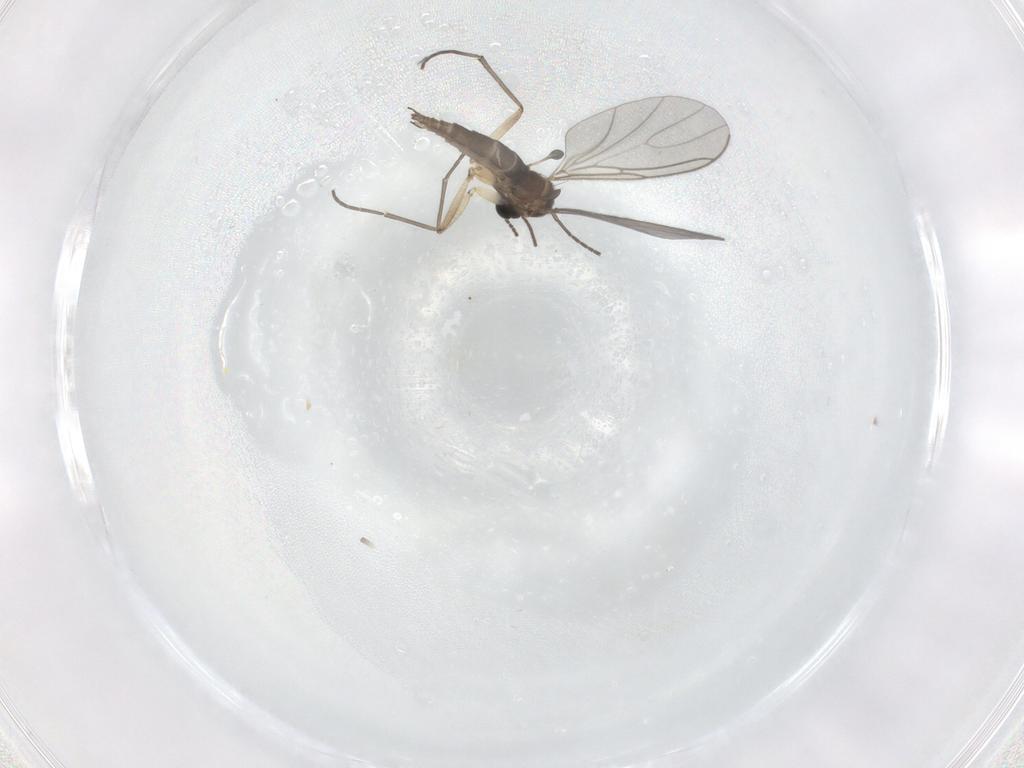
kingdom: Animalia
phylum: Arthropoda
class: Insecta
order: Diptera
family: Sciaridae
